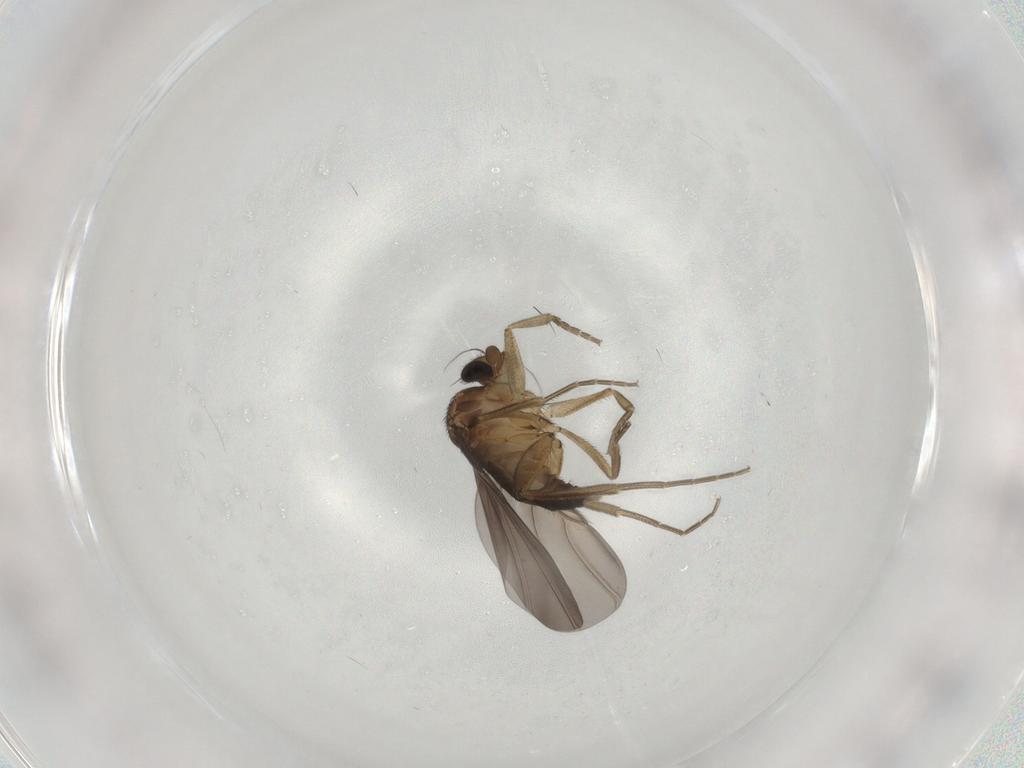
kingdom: Animalia
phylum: Arthropoda
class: Insecta
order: Diptera
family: Phoridae
